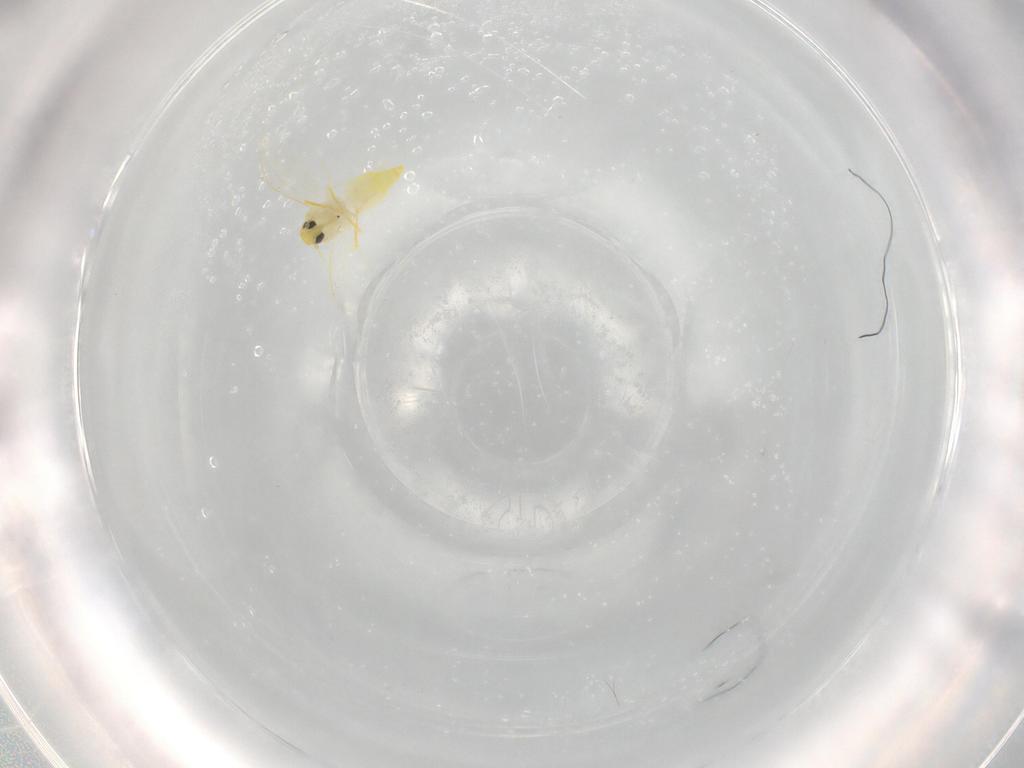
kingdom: Animalia
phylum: Arthropoda
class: Insecta
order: Hemiptera
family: Aleyrodidae
